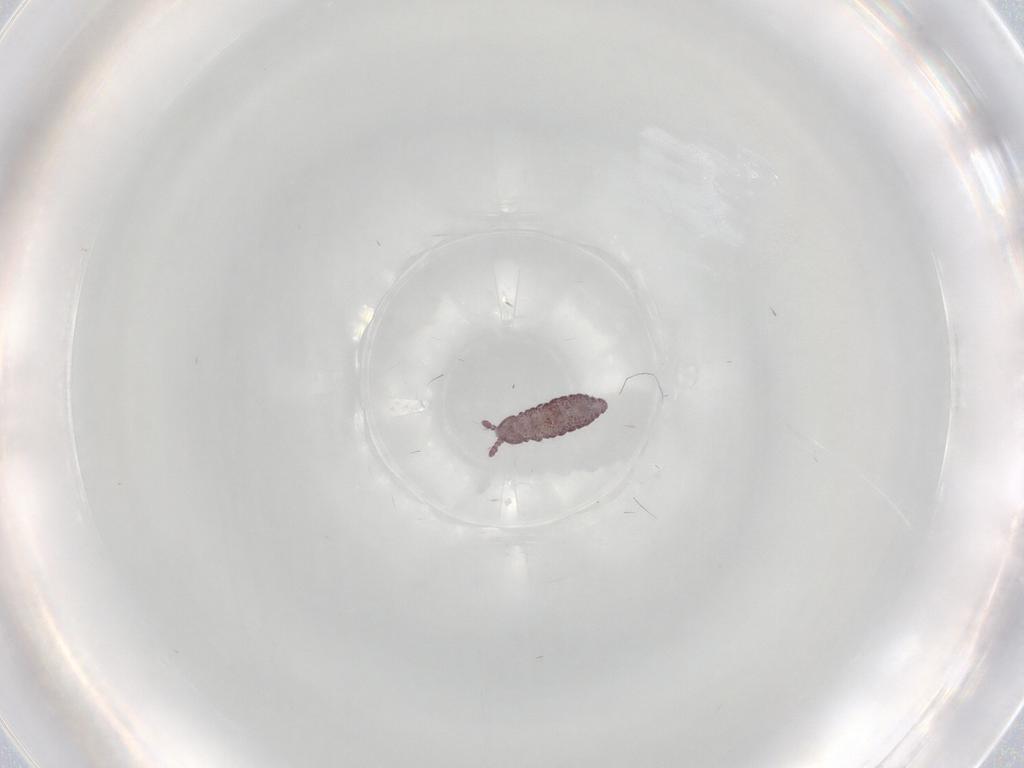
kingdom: Animalia
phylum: Arthropoda
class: Collembola
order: Poduromorpha
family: Hypogastruridae
